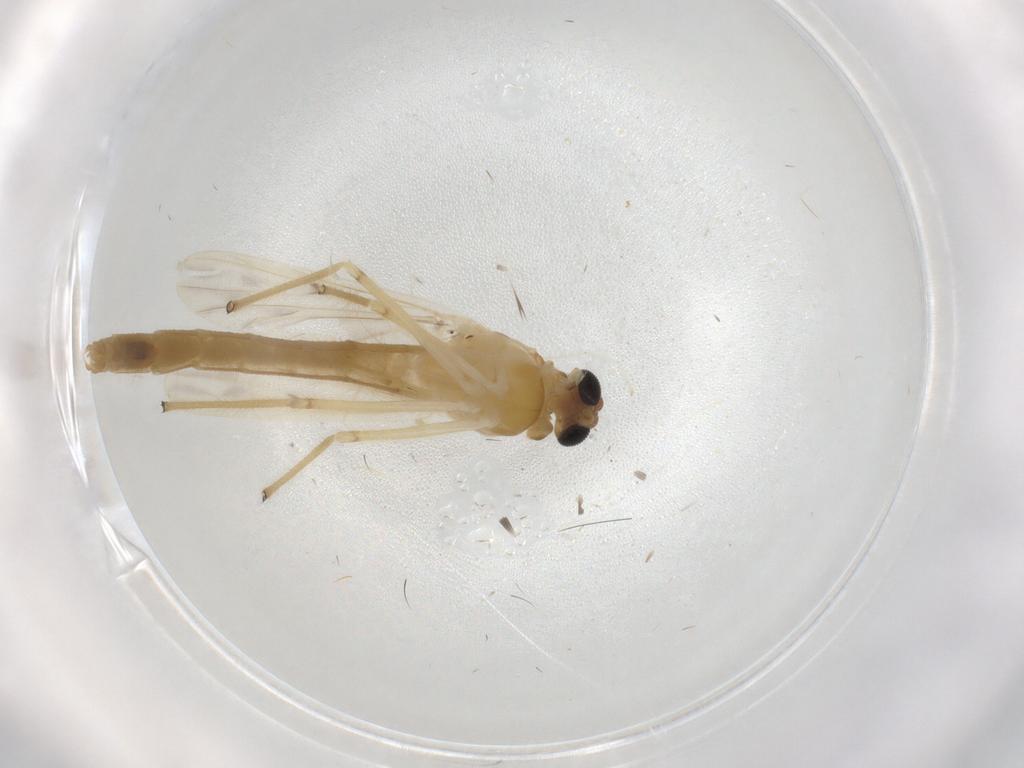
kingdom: Animalia
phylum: Arthropoda
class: Insecta
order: Diptera
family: Chironomidae
